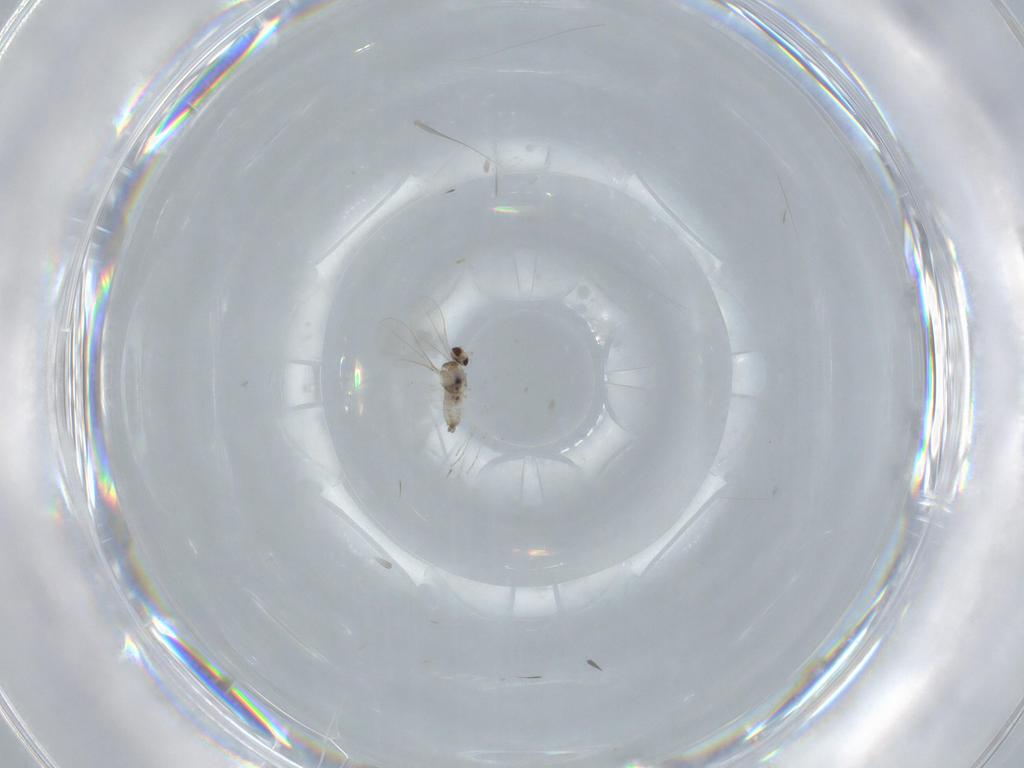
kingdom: Animalia
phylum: Arthropoda
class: Insecta
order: Diptera
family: Cecidomyiidae
